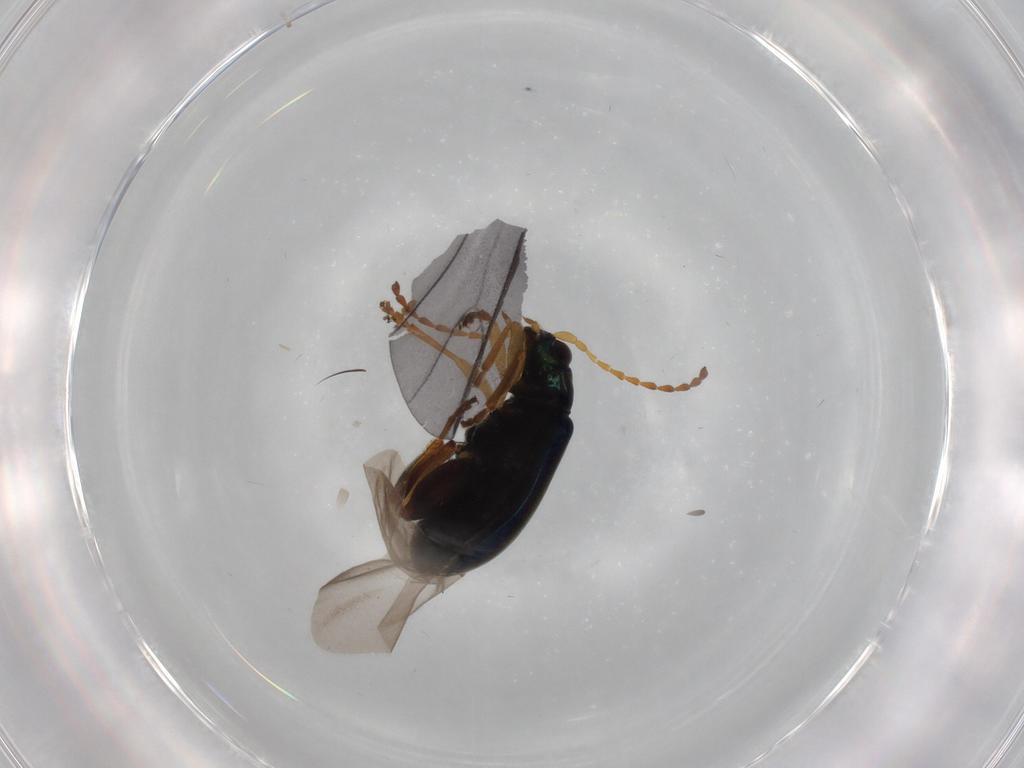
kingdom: Animalia
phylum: Arthropoda
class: Insecta
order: Coleoptera
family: Chrysomelidae
